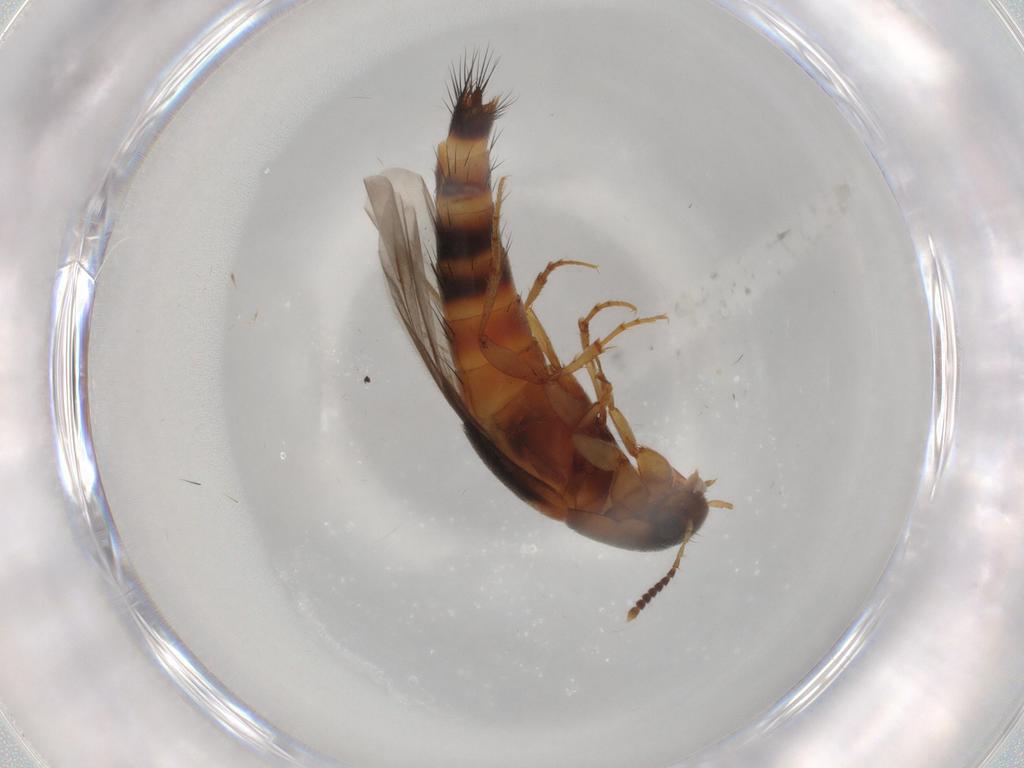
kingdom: Animalia
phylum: Arthropoda
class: Insecta
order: Coleoptera
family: Staphylinidae
